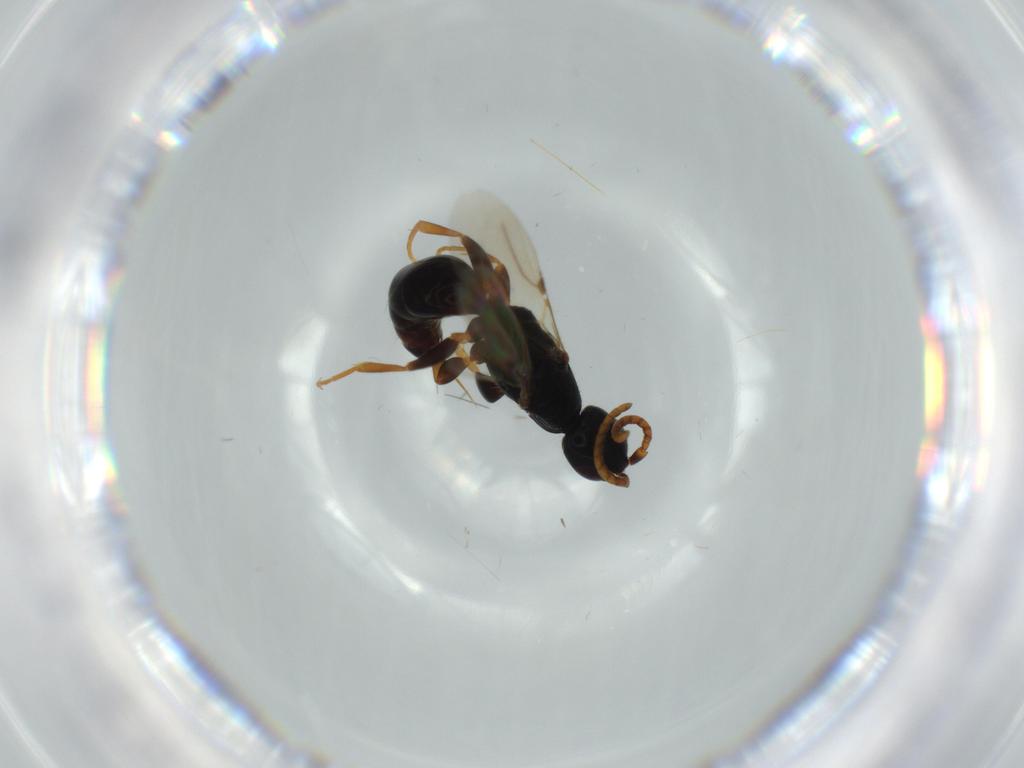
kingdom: Animalia
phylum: Arthropoda
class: Insecta
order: Hymenoptera
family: Bethylidae
